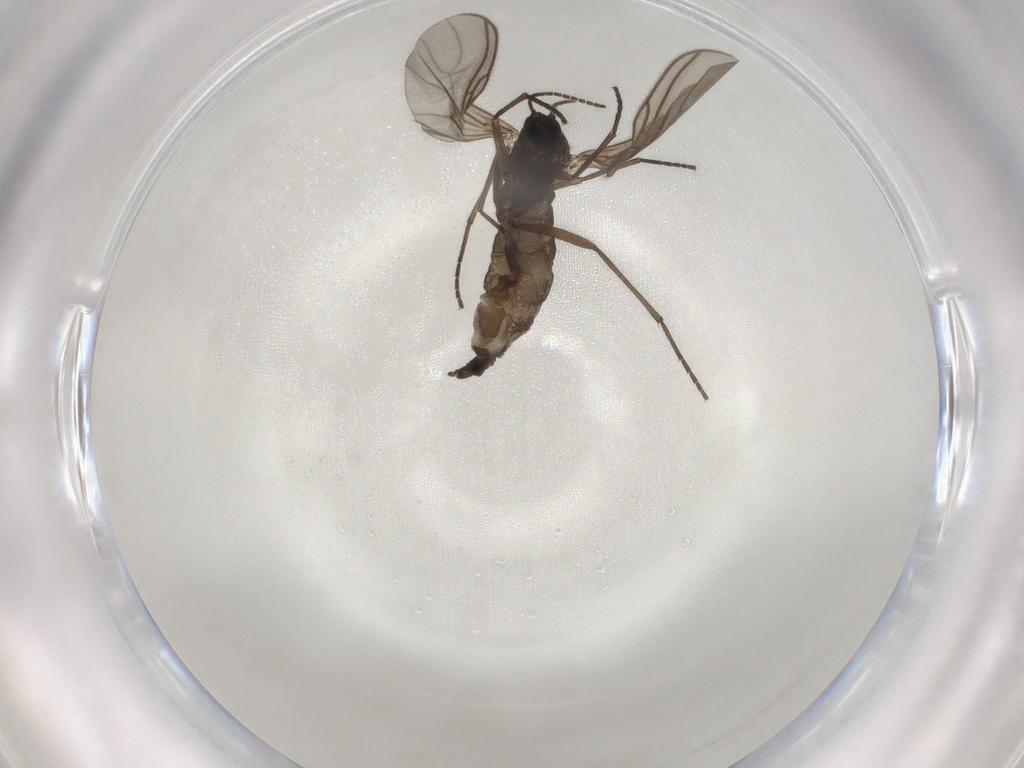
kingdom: Animalia
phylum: Arthropoda
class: Insecta
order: Diptera
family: Sciaridae
